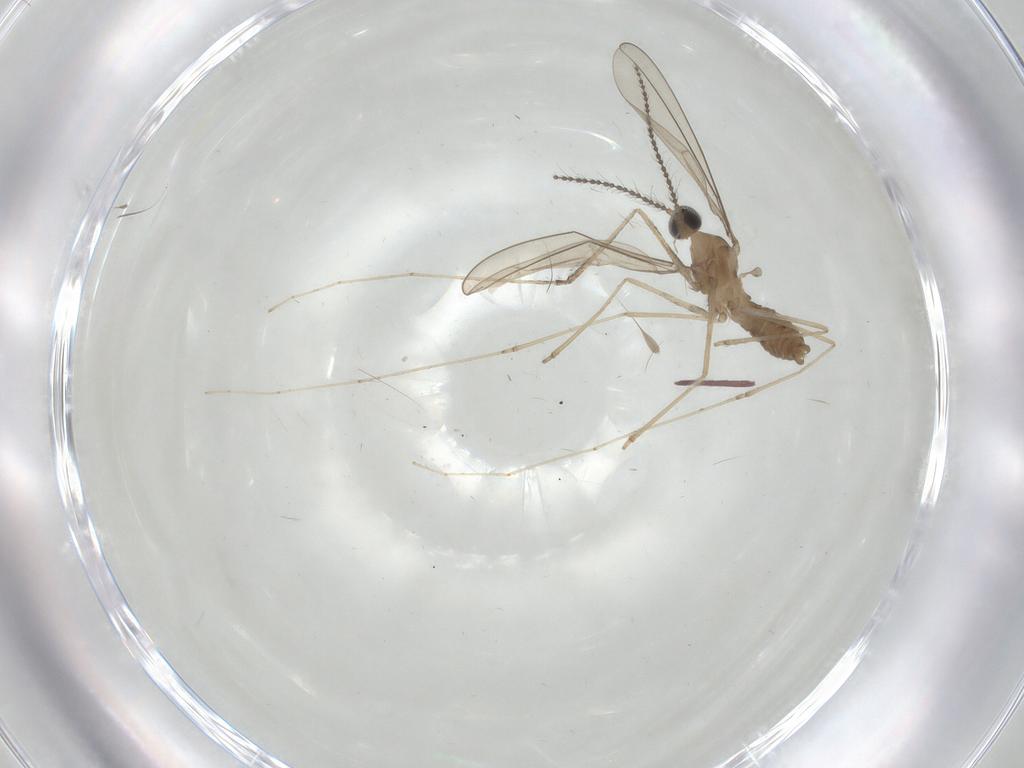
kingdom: Animalia
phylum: Arthropoda
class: Insecta
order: Diptera
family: Cecidomyiidae
